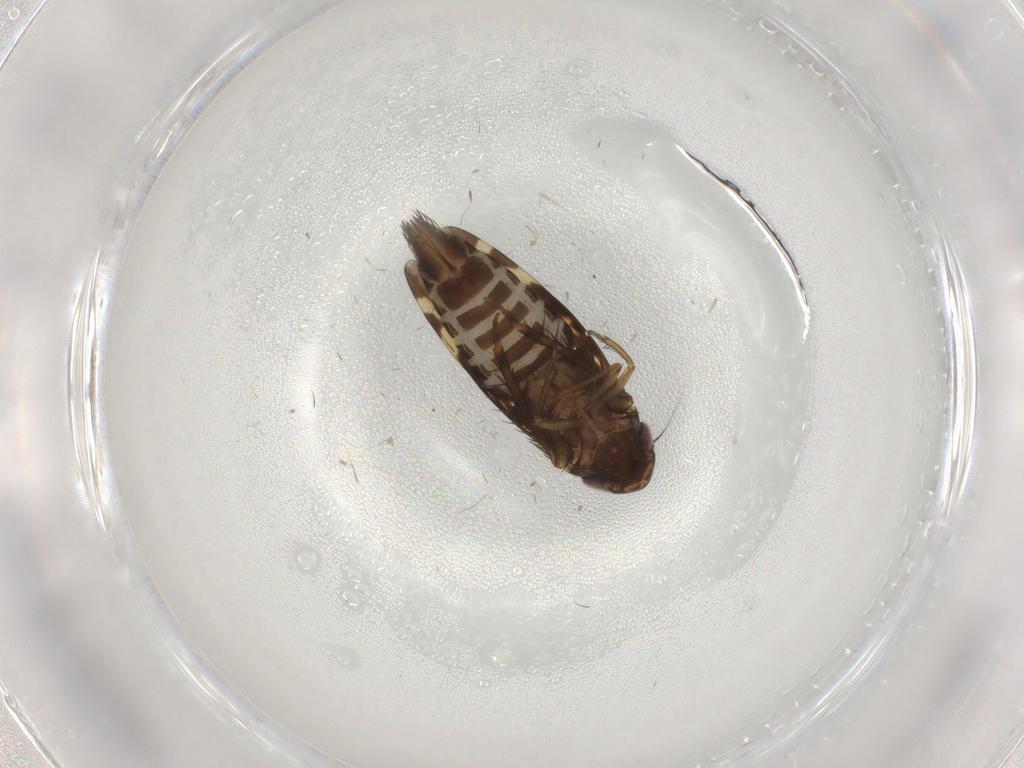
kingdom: Animalia
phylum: Arthropoda
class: Insecta
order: Hemiptera
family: Cicadellidae
